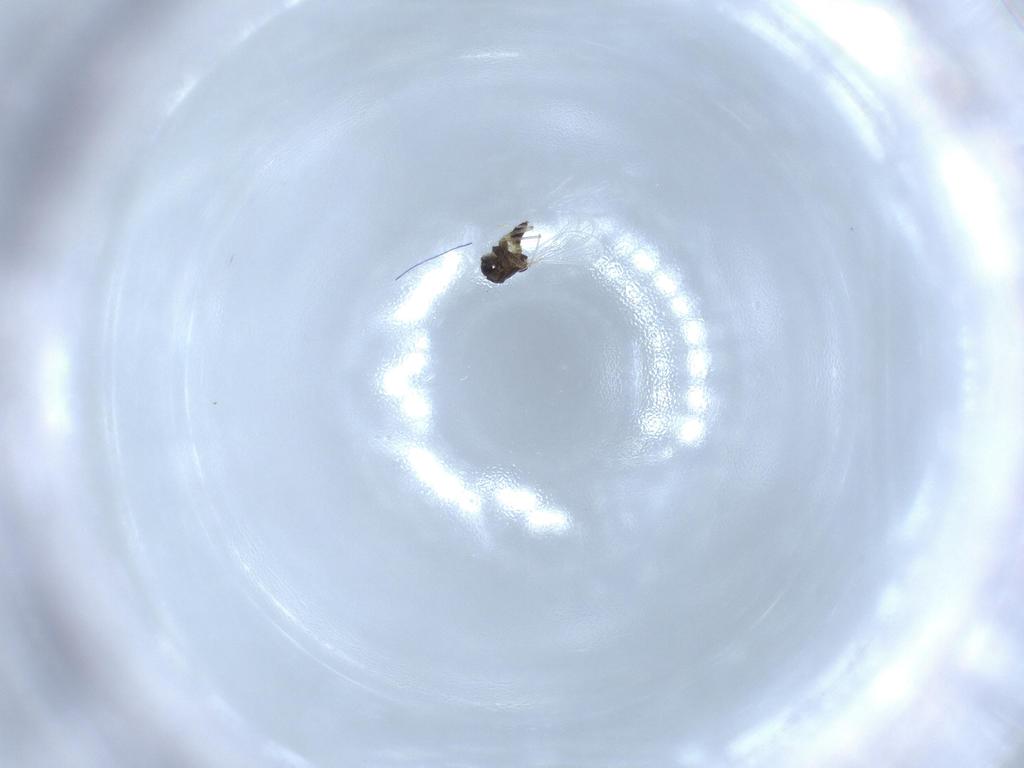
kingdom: Animalia
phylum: Arthropoda
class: Insecta
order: Diptera
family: Chironomidae
